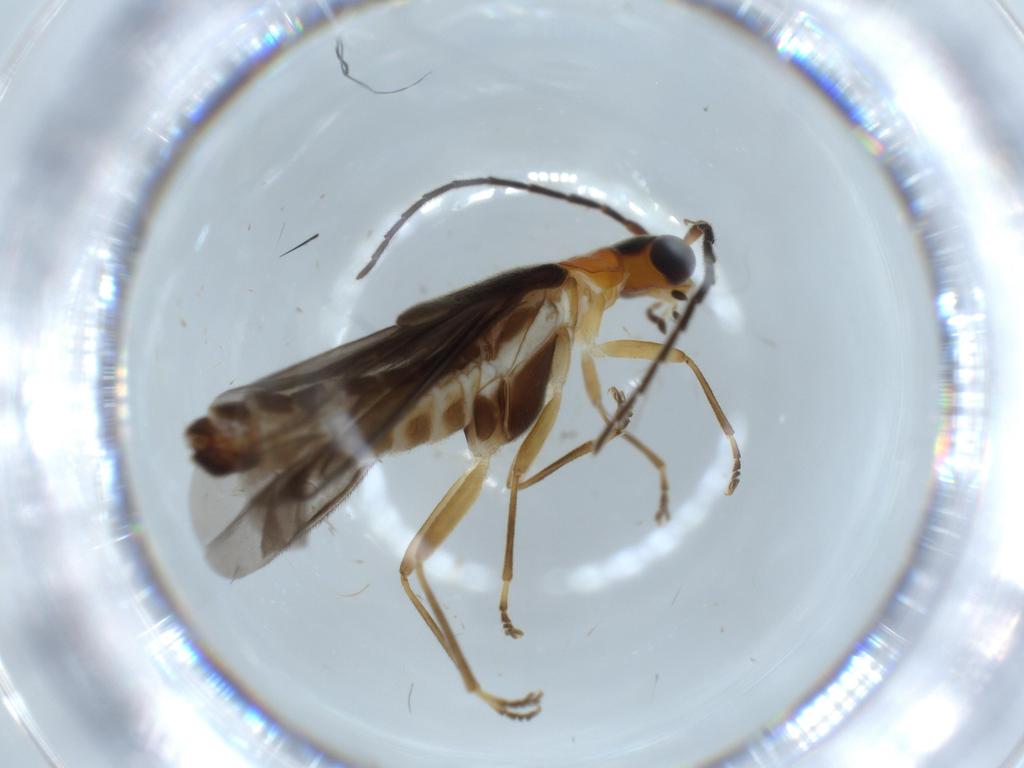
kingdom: Animalia
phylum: Arthropoda
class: Insecta
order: Coleoptera
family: Cantharidae
